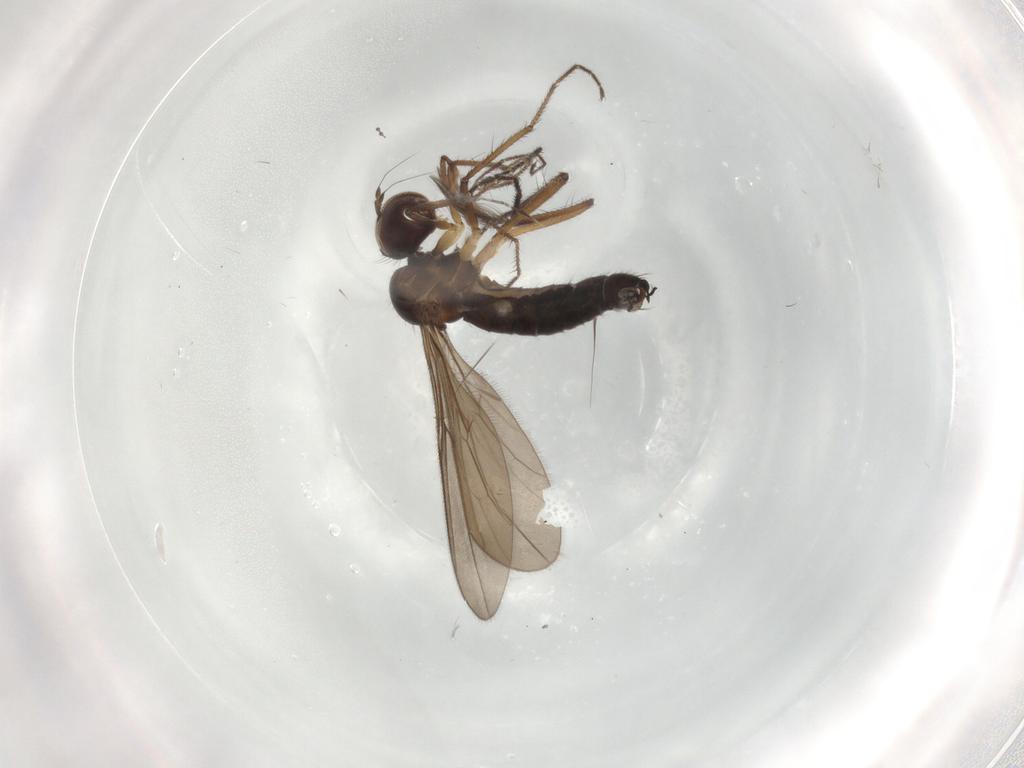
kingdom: Animalia
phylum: Arthropoda
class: Insecta
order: Diptera
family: Hybotidae
